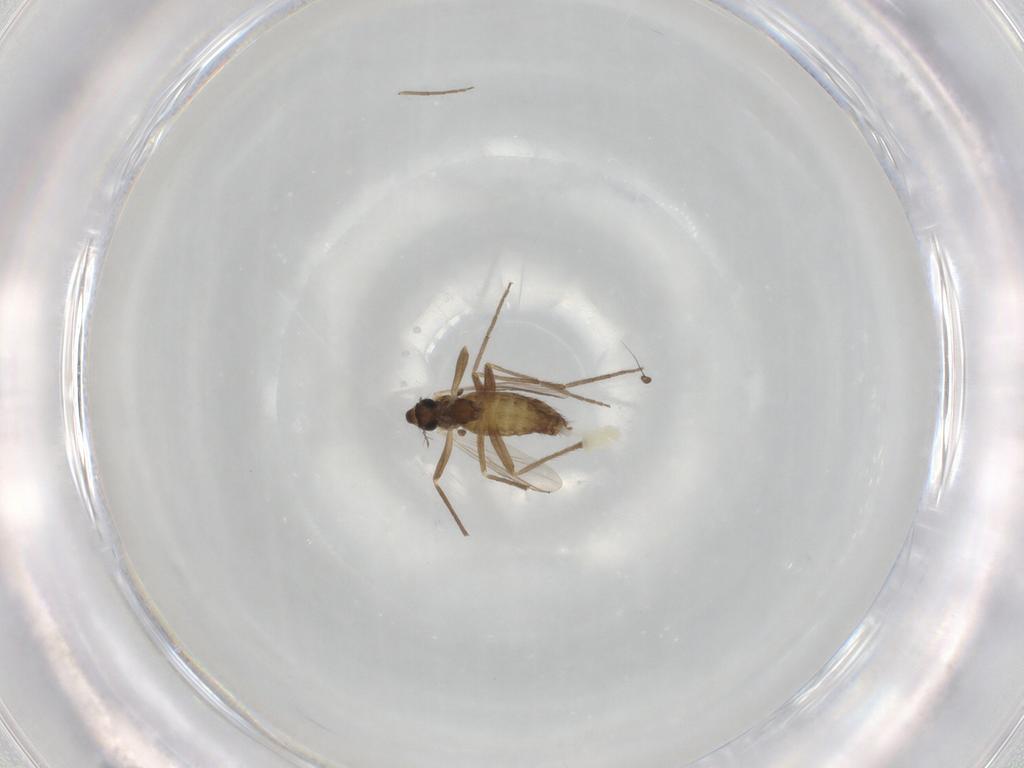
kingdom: Animalia
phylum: Arthropoda
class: Insecta
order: Diptera
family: Chironomidae
